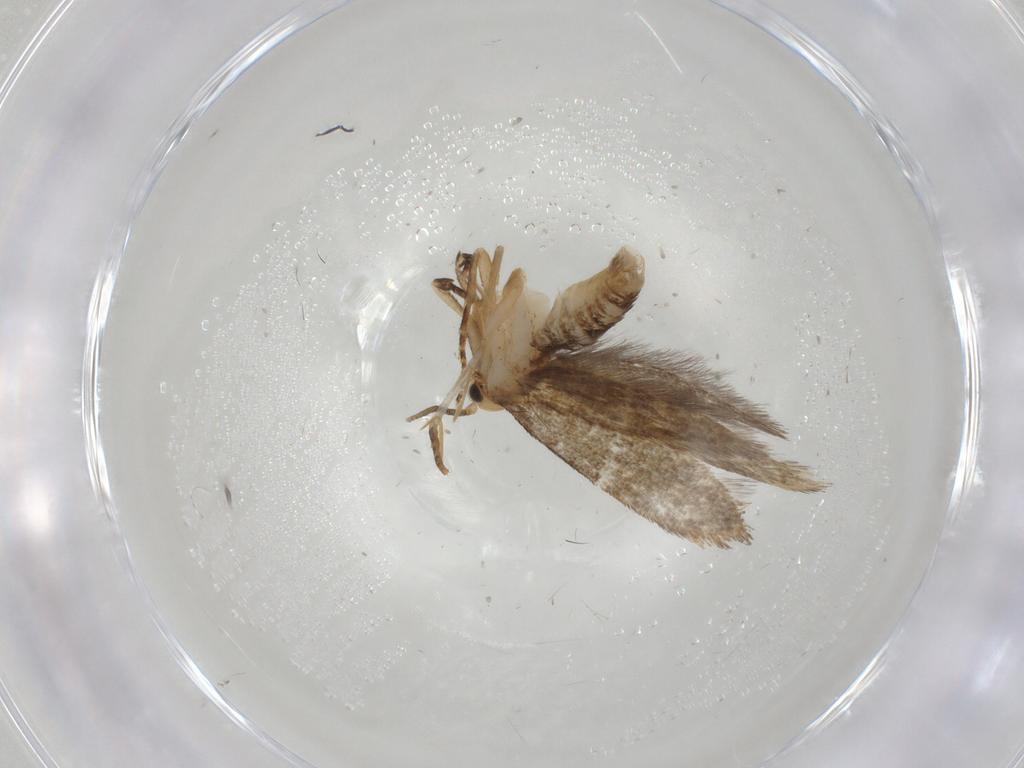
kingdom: Animalia
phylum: Arthropoda
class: Insecta
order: Lepidoptera
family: Tineidae
